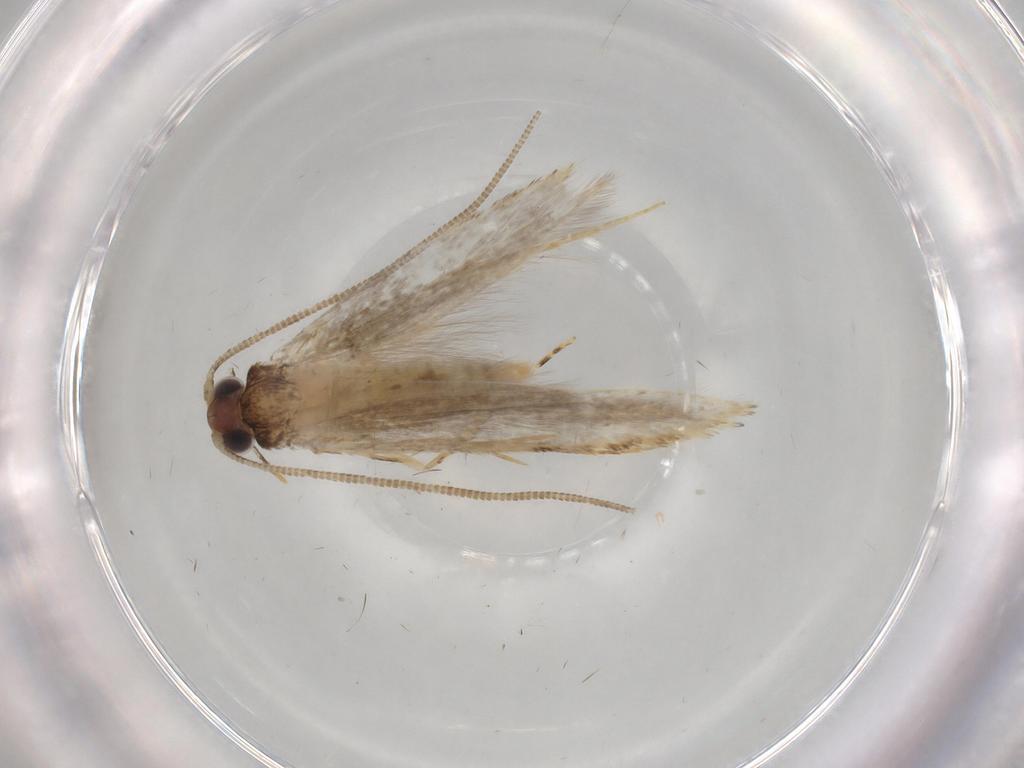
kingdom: Animalia
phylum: Arthropoda
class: Insecta
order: Lepidoptera
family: Tineidae
